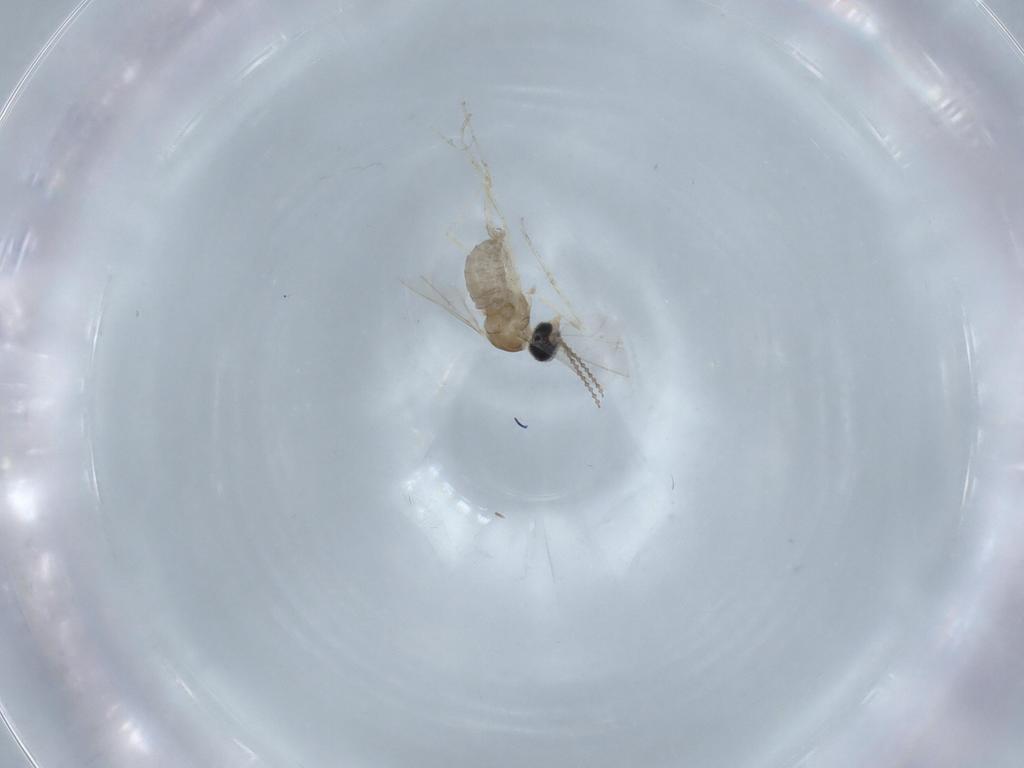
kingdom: Animalia
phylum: Arthropoda
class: Insecta
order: Diptera
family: Cecidomyiidae
